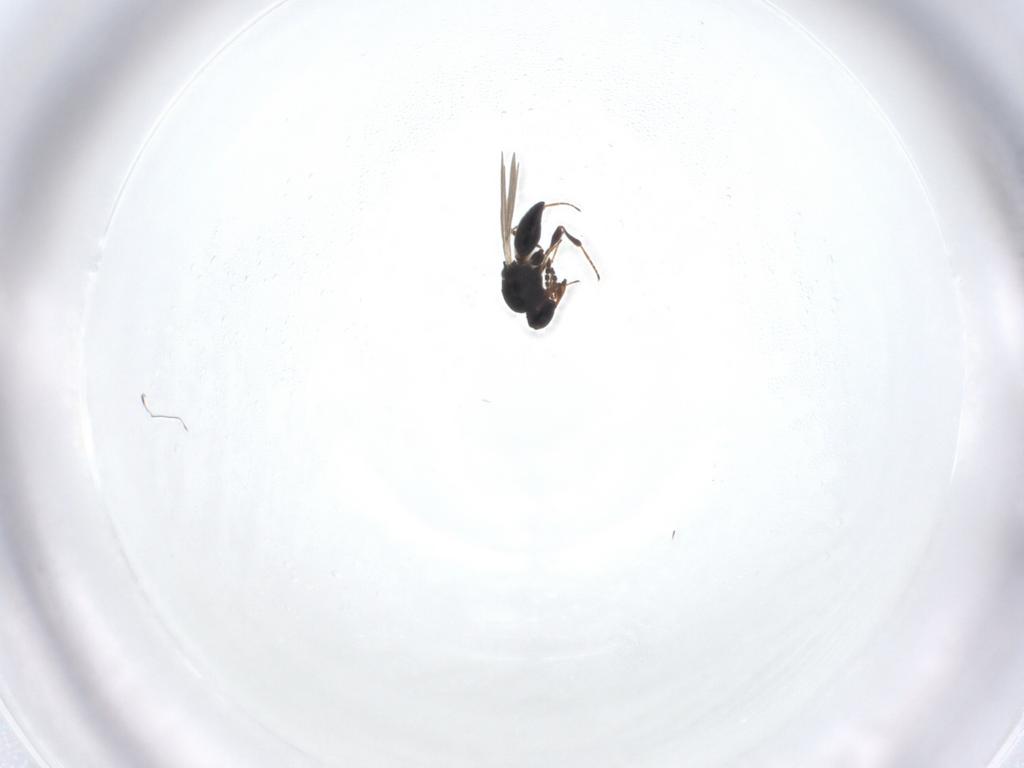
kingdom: Animalia
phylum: Arthropoda
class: Insecta
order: Hymenoptera
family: Platygastridae
